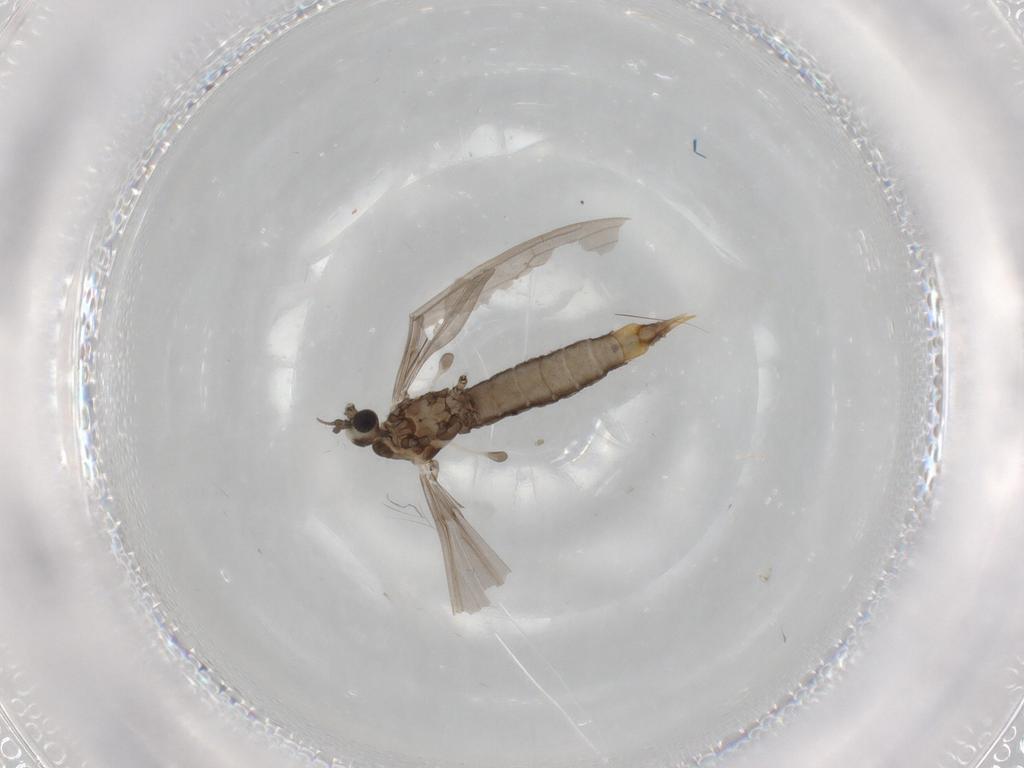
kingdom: Animalia
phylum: Arthropoda
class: Insecta
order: Diptera
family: Limoniidae
